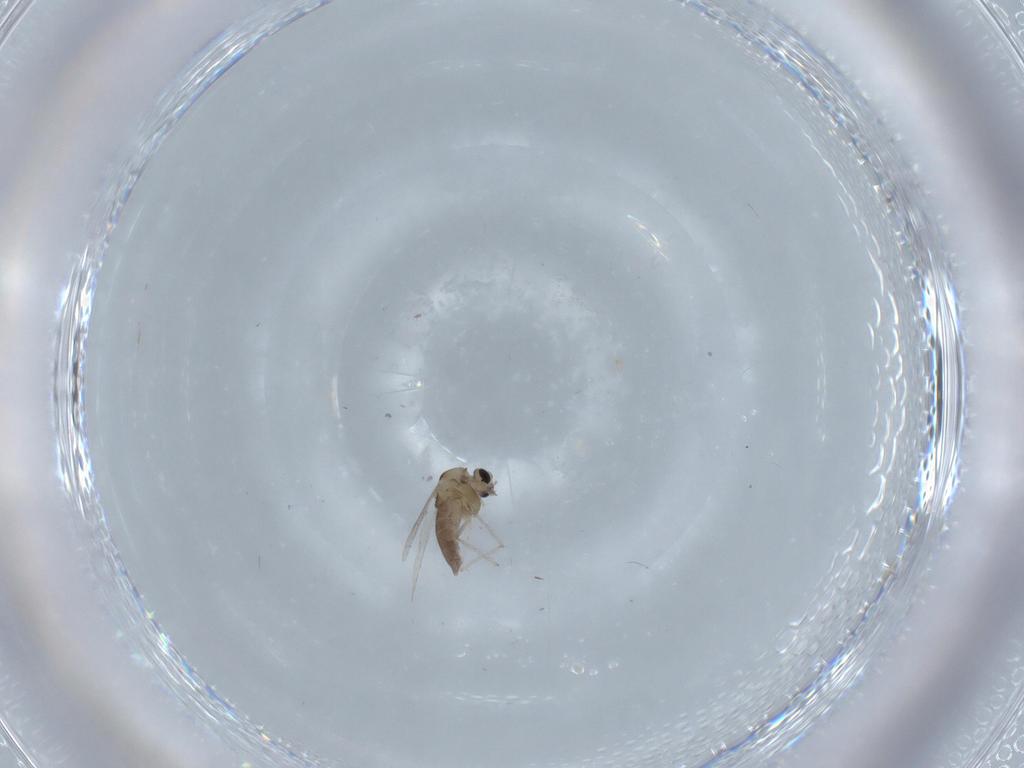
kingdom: Animalia
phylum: Arthropoda
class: Insecta
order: Diptera
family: Chironomidae
